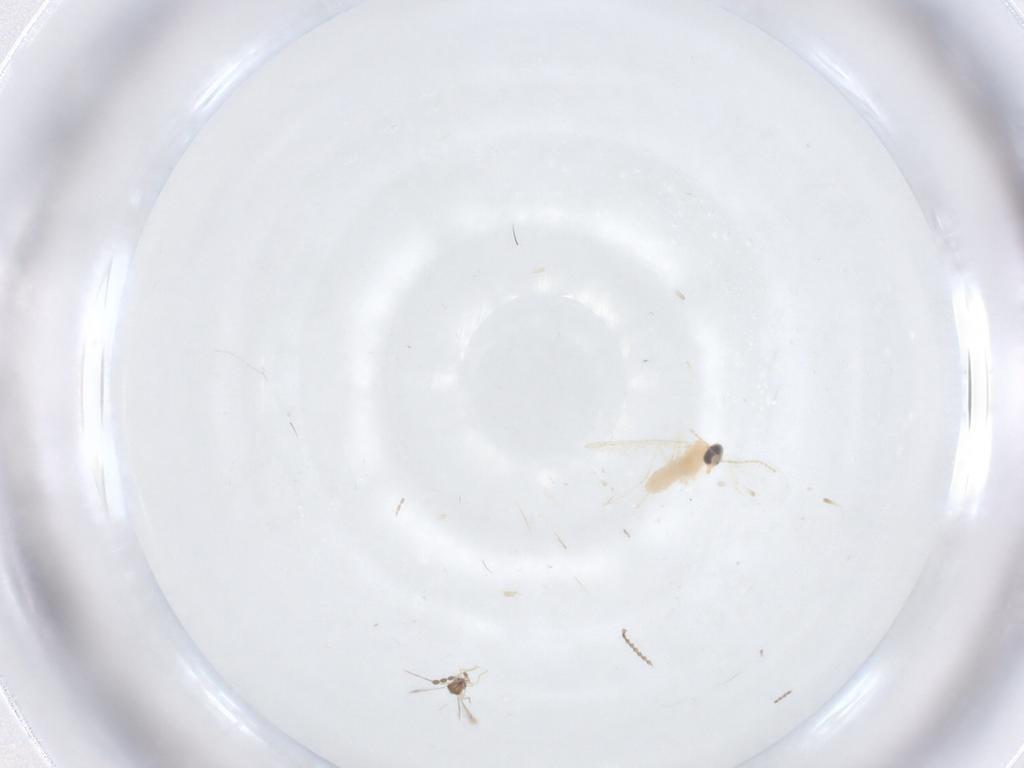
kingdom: Animalia
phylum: Arthropoda
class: Insecta
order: Diptera
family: Cecidomyiidae
